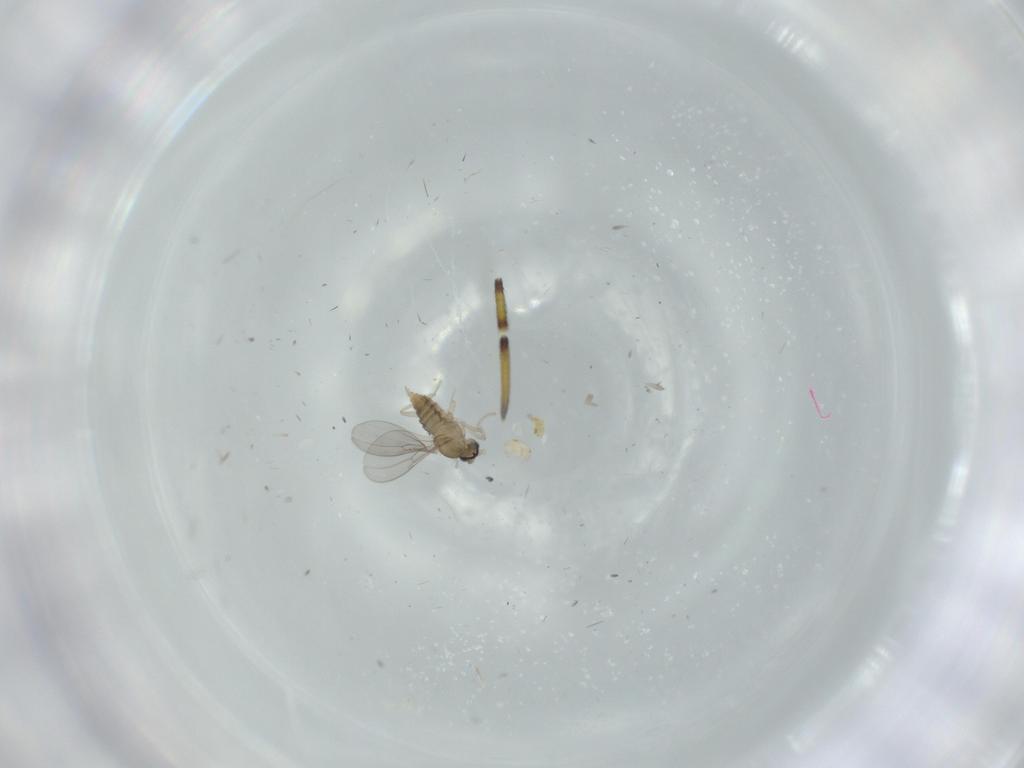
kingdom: Animalia
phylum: Arthropoda
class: Insecta
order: Diptera
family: Cecidomyiidae
